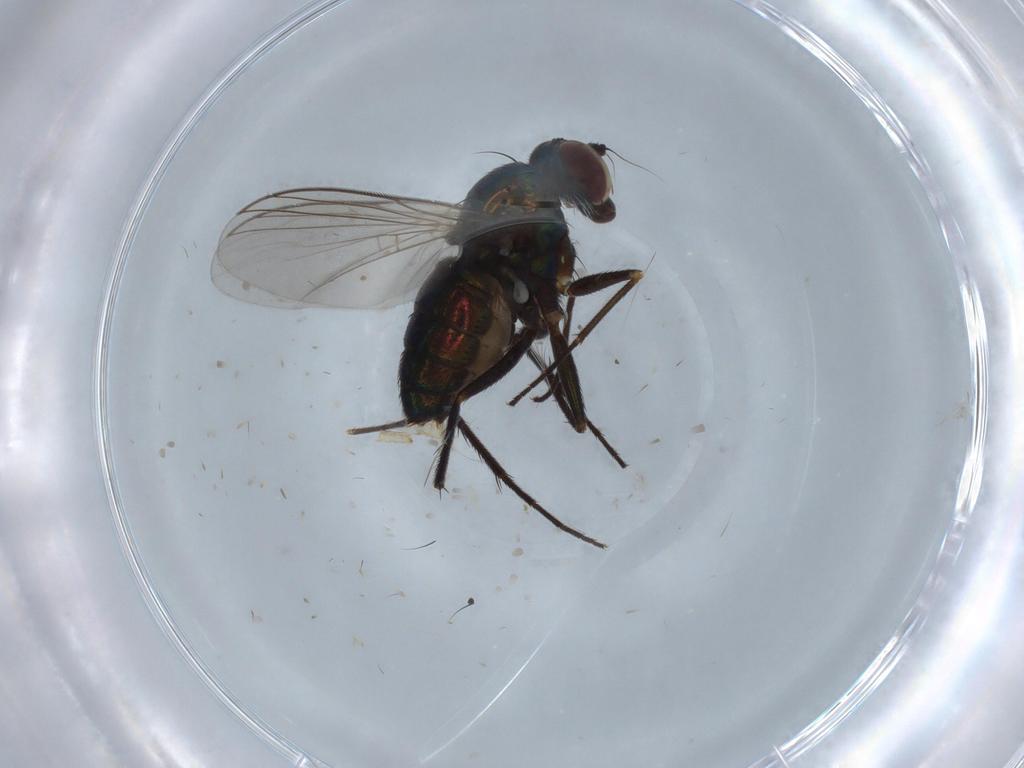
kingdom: Animalia
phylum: Arthropoda
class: Insecta
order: Diptera
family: Dolichopodidae
